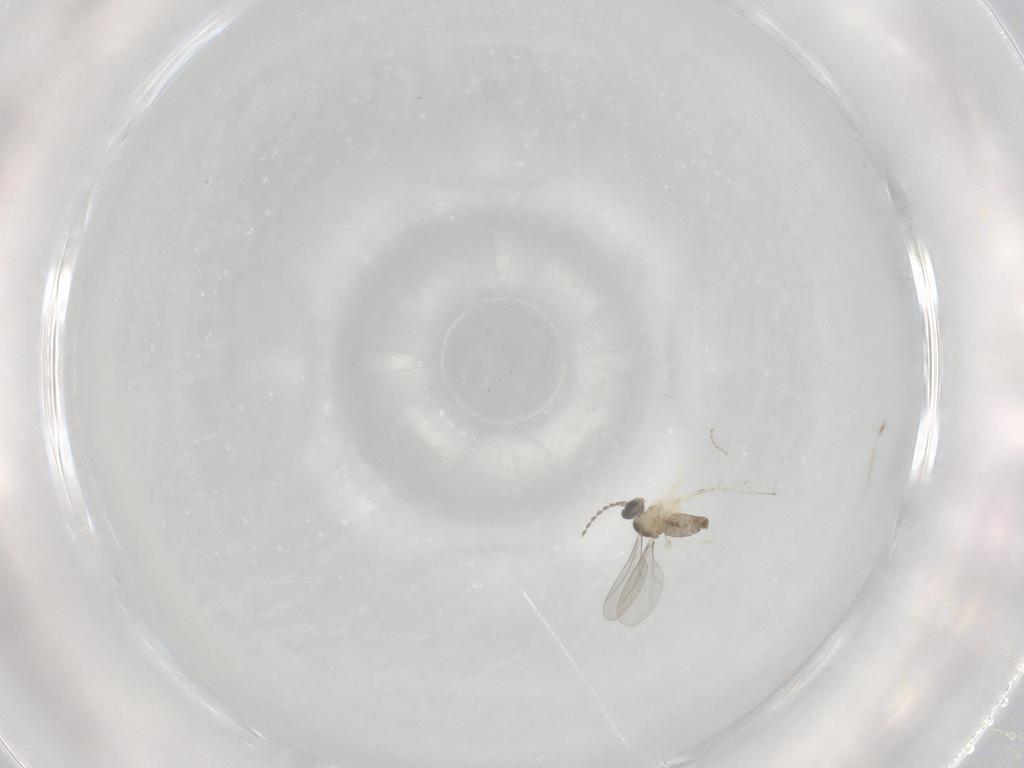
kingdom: Animalia
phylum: Arthropoda
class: Insecta
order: Diptera
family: Cecidomyiidae
